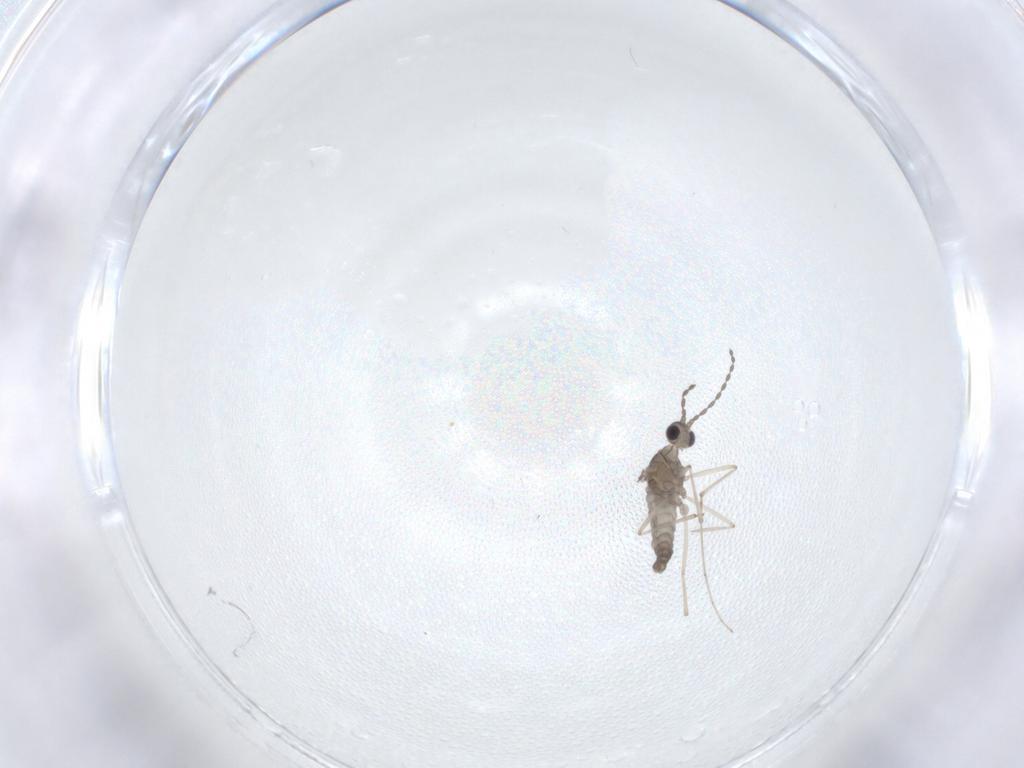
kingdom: Animalia
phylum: Arthropoda
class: Insecta
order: Diptera
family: Cecidomyiidae
